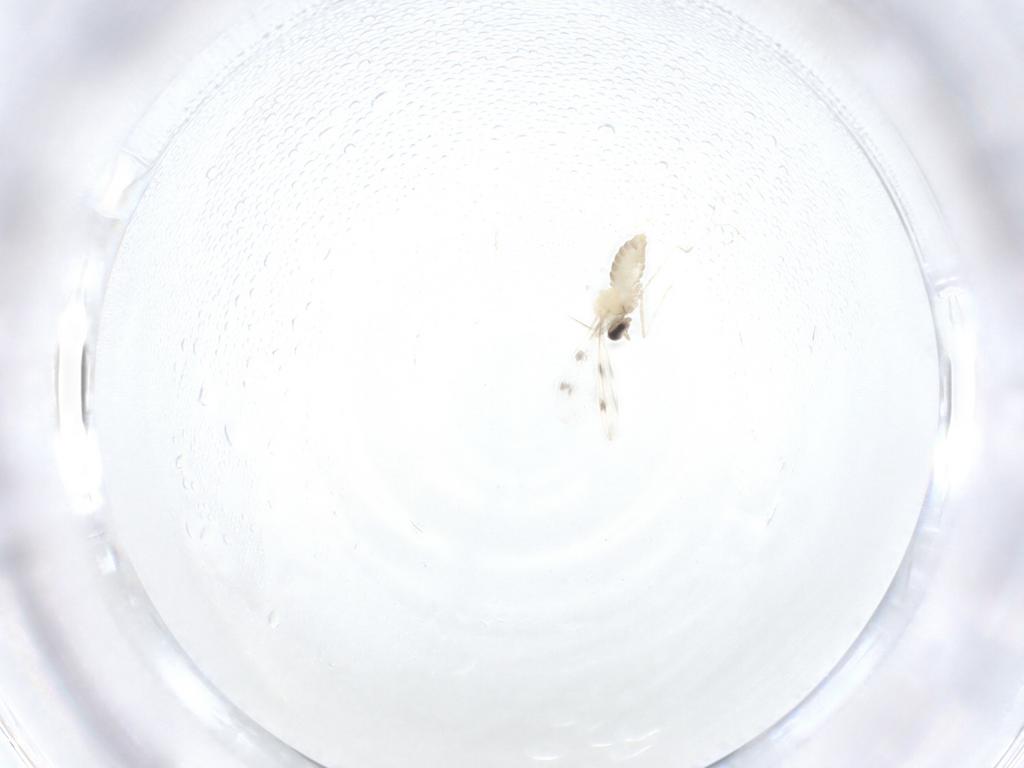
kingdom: Animalia
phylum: Arthropoda
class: Insecta
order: Diptera
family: Cecidomyiidae
